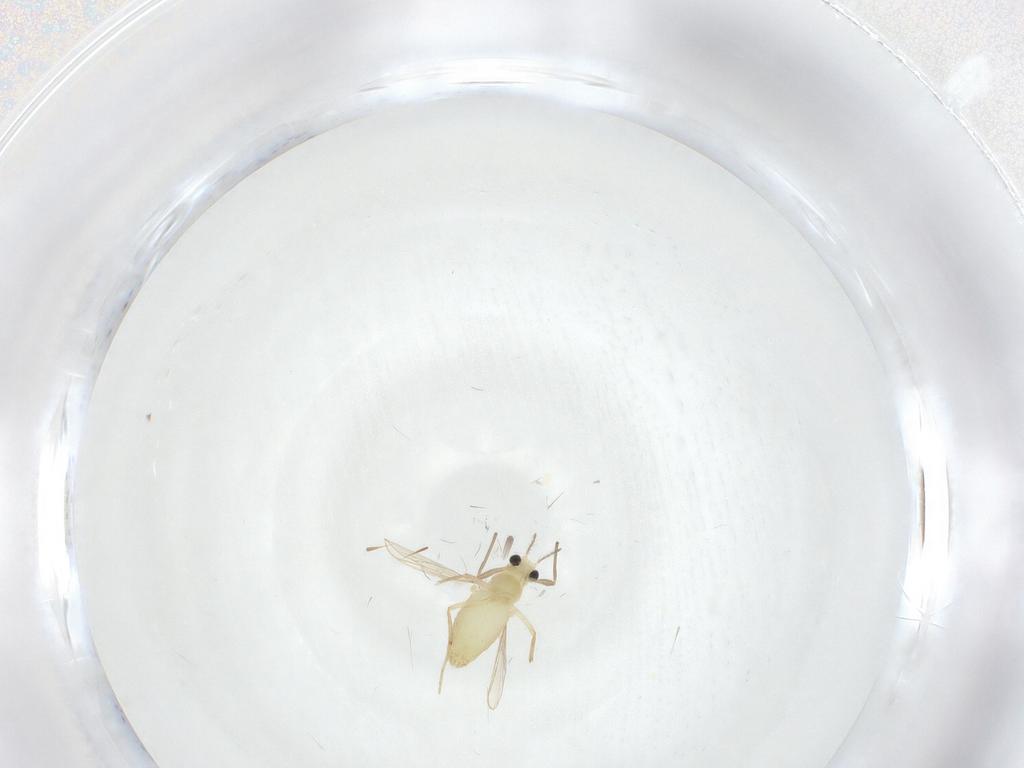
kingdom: Animalia
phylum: Arthropoda
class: Insecta
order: Diptera
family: Chironomidae
